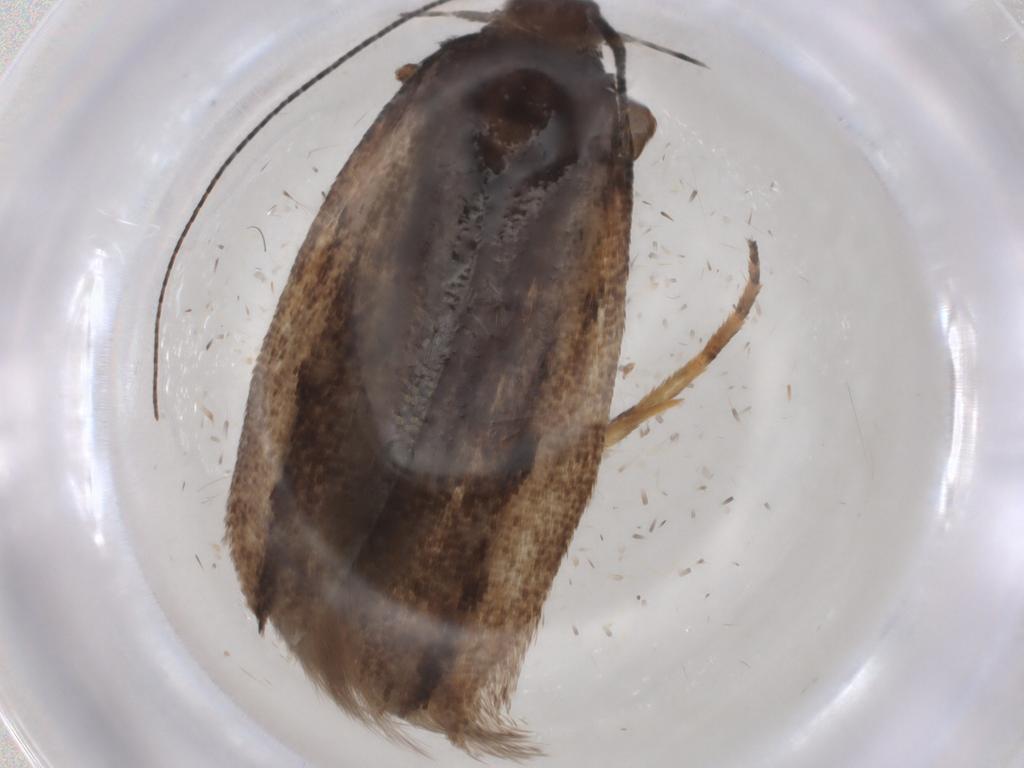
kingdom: Animalia
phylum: Arthropoda
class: Insecta
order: Lepidoptera
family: Gelechiidae
